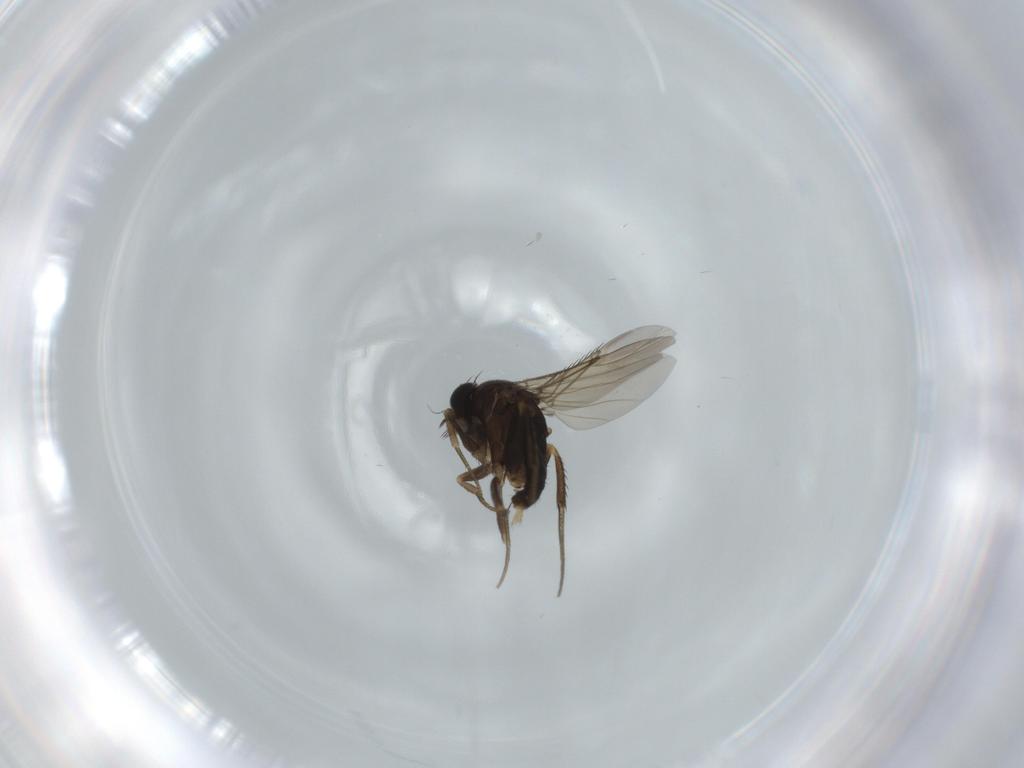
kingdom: Animalia
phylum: Arthropoda
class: Insecta
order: Diptera
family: Phoridae
